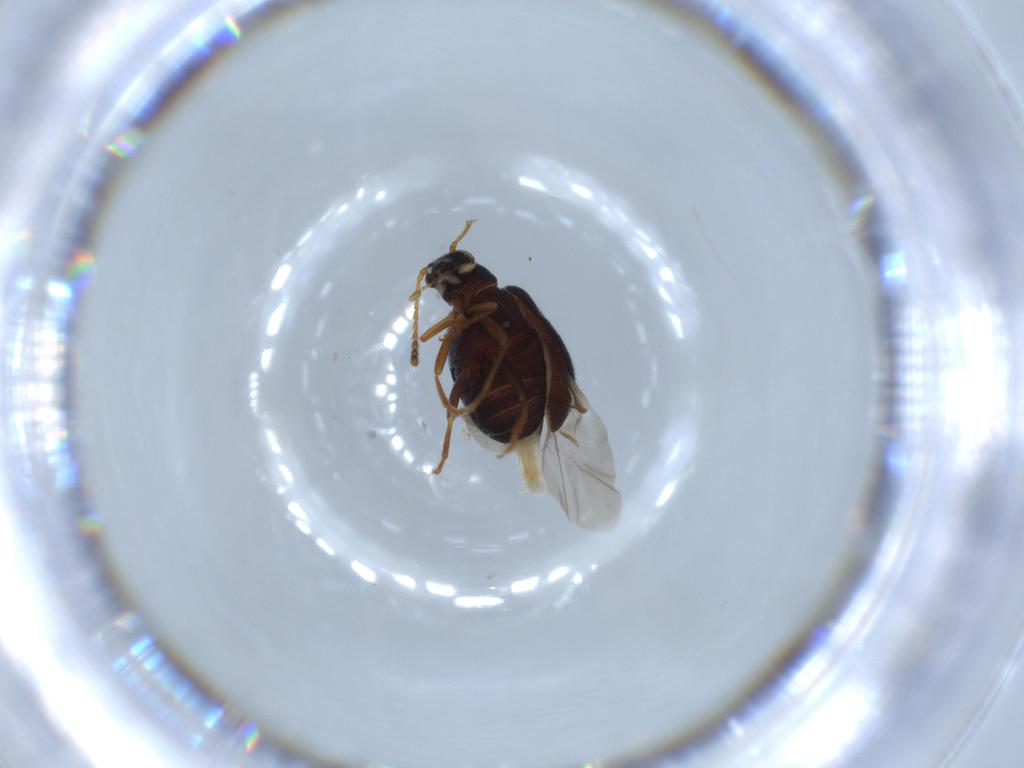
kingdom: Animalia
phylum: Arthropoda
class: Insecta
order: Coleoptera
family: Aderidae
